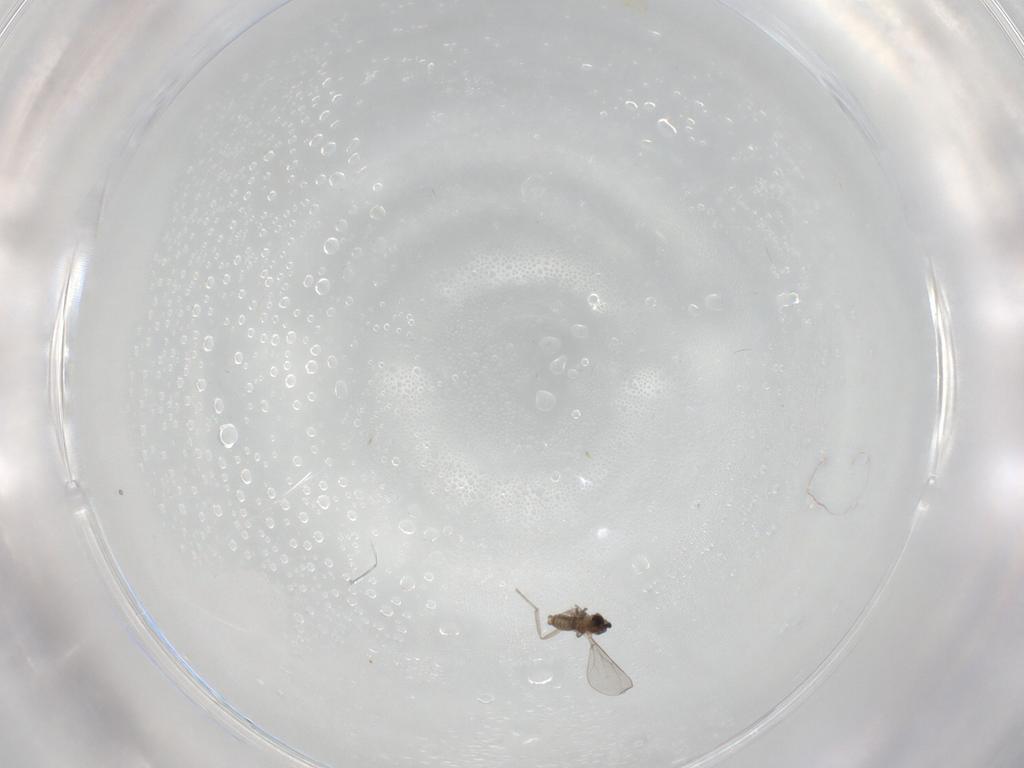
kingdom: Animalia
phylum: Arthropoda
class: Insecta
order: Diptera
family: Cecidomyiidae
